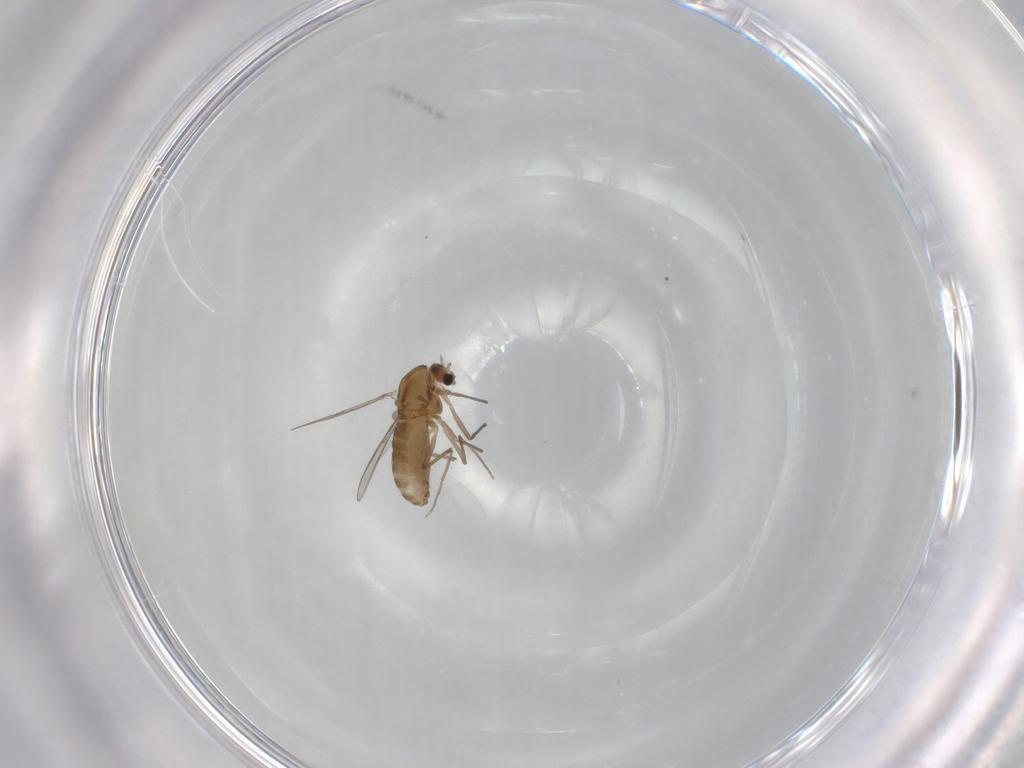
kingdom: Animalia
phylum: Arthropoda
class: Insecta
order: Diptera
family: Chironomidae
